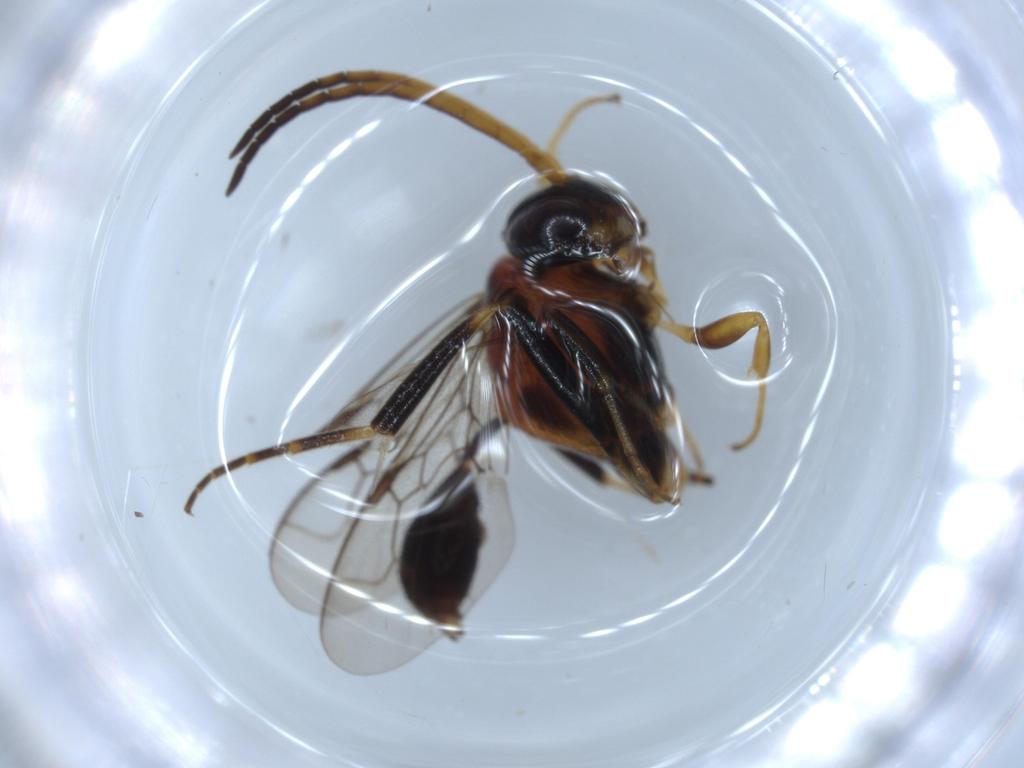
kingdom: Animalia
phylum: Arthropoda
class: Insecta
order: Hymenoptera
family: Evaniidae
